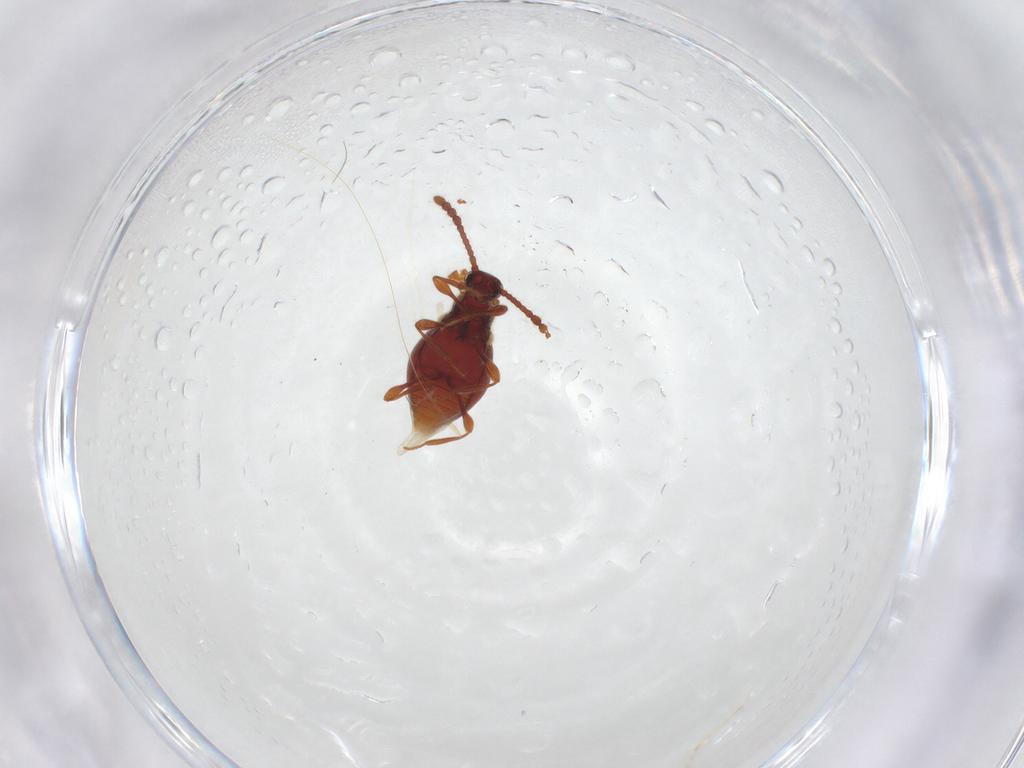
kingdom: Animalia
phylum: Arthropoda
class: Insecta
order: Coleoptera
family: Staphylinidae
